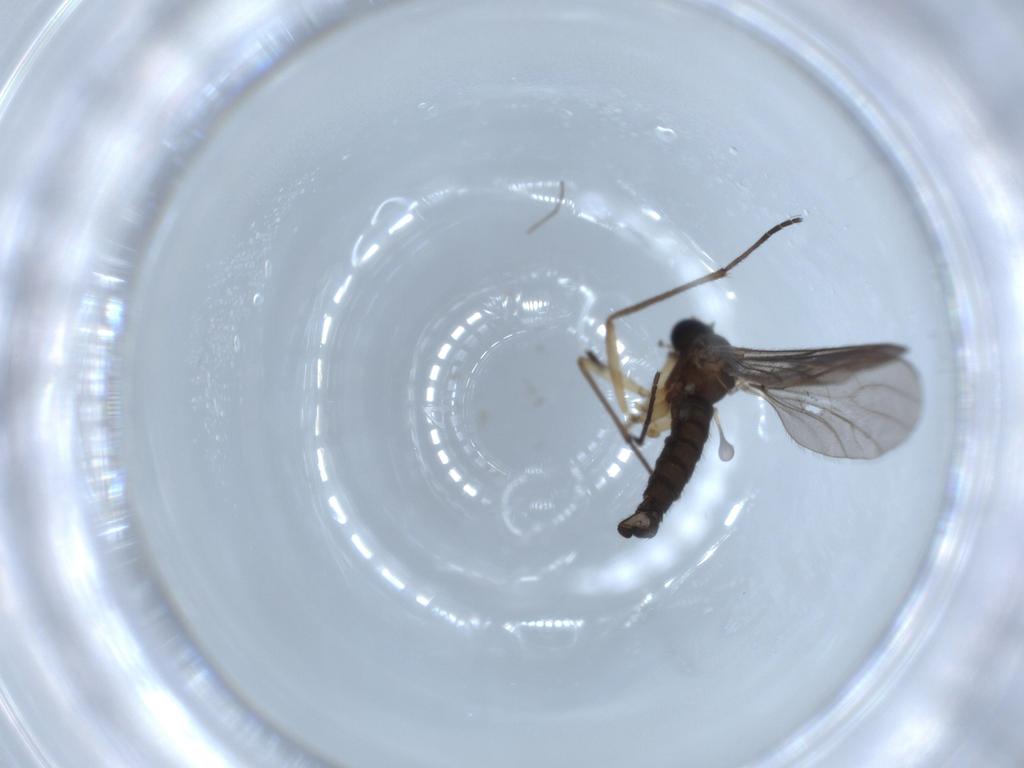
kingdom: Animalia
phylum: Arthropoda
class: Insecta
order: Diptera
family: Sciaridae
